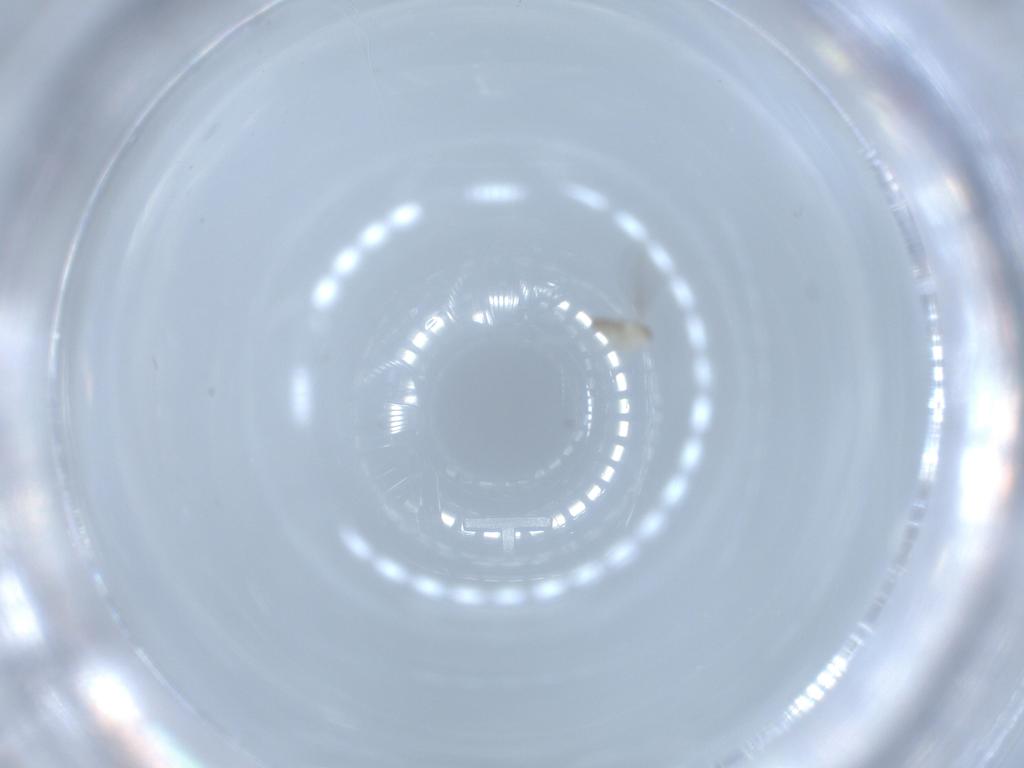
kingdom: Animalia
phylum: Arthropoda
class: Insecta
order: Diptera
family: Cecidomyiidae
